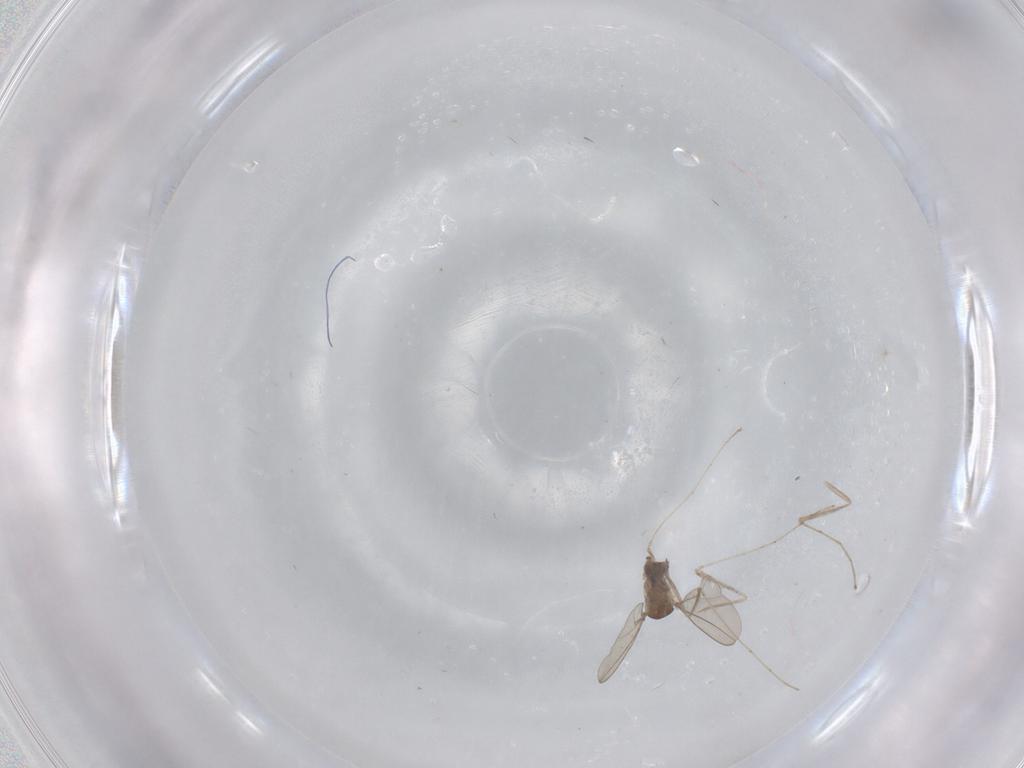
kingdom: Animalia
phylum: Arthropoda
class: Insecta
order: Diptera
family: Cecidomyiidae
